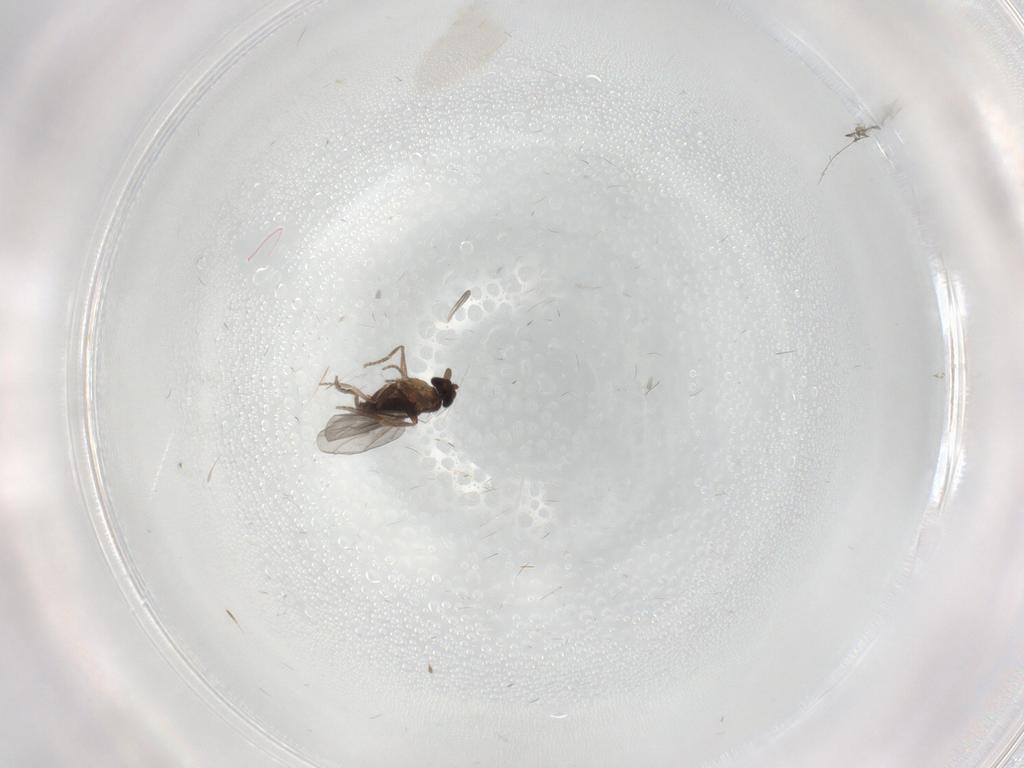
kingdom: Animalia
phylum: Arthropoda
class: Insecta
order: Diptera
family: Cecidomyiidae
